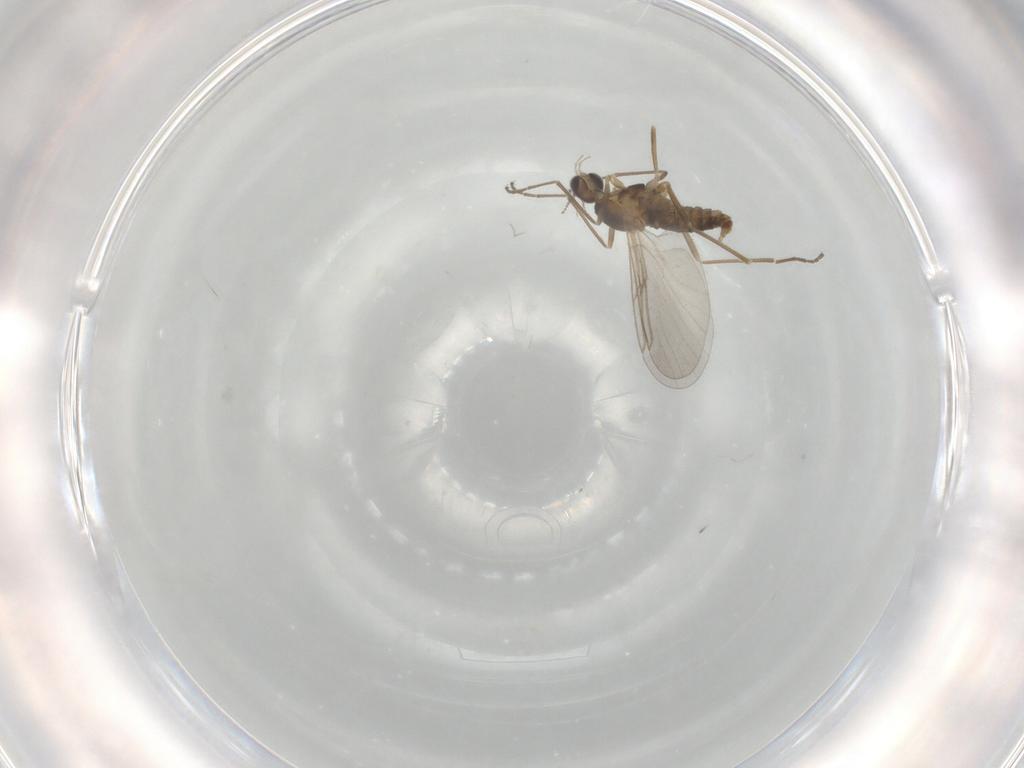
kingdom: Animalia
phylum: Arthropoda
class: Insecta
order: Diptera
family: Cecidomyiidae
